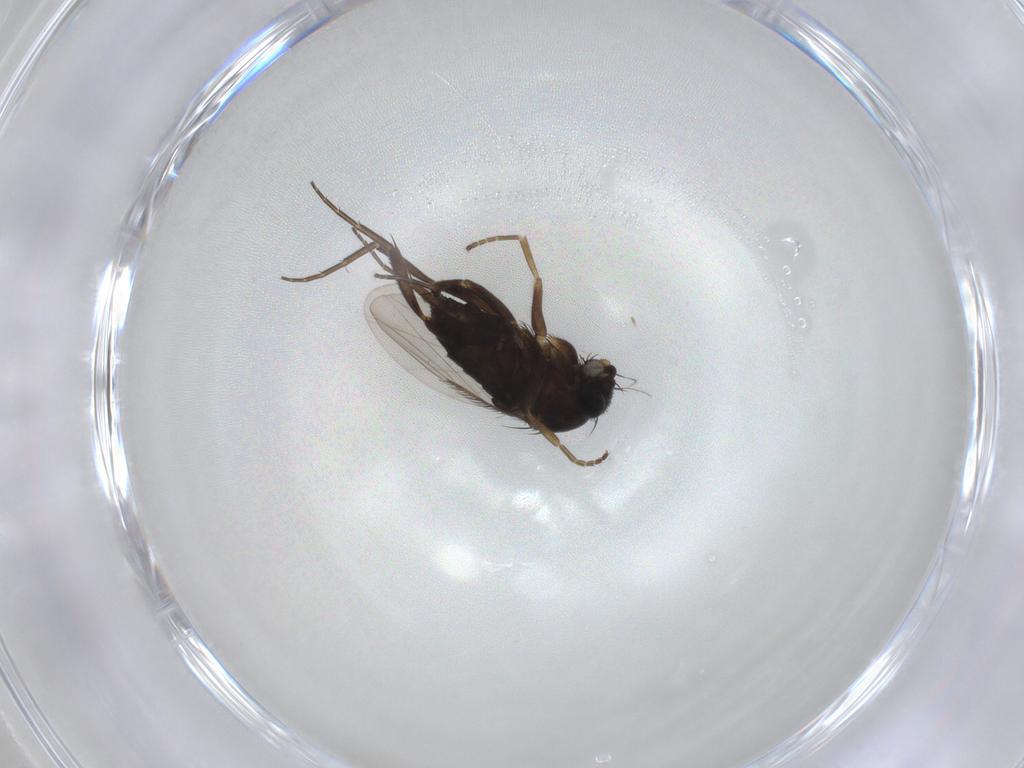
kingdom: Animalia
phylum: Arthropoda
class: Insecta
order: Diptera
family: Phoridae
